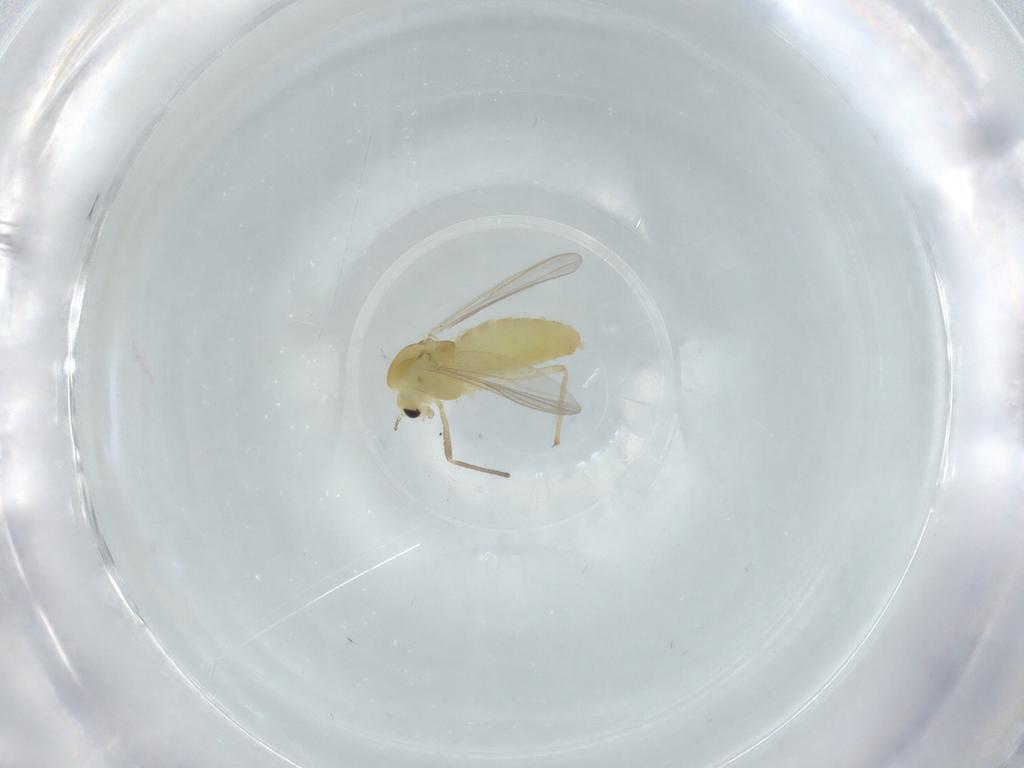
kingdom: Animalia
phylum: Arthropoda
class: Insecta
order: Diptera
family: Chironomidae
